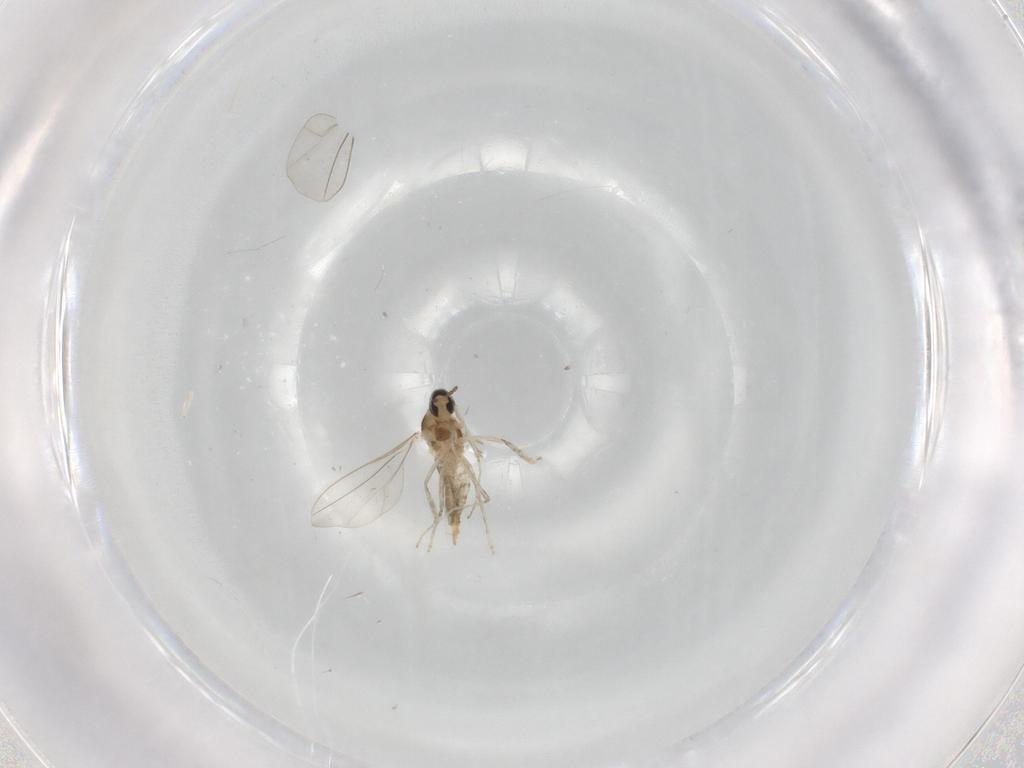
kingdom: Animalia
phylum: Arthropoda
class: Insecta
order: Diptera
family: Cecidomyiidae
